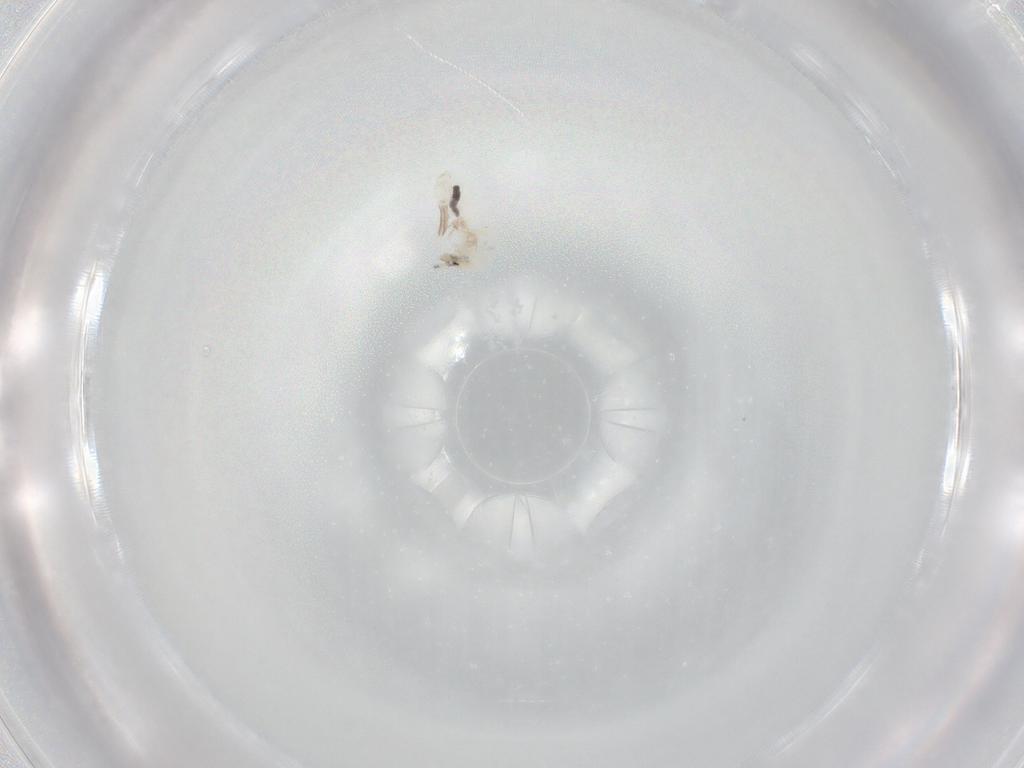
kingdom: Animalia
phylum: Arthropoda
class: Collembola
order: Entomobryomorpha
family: Entomobryidae
